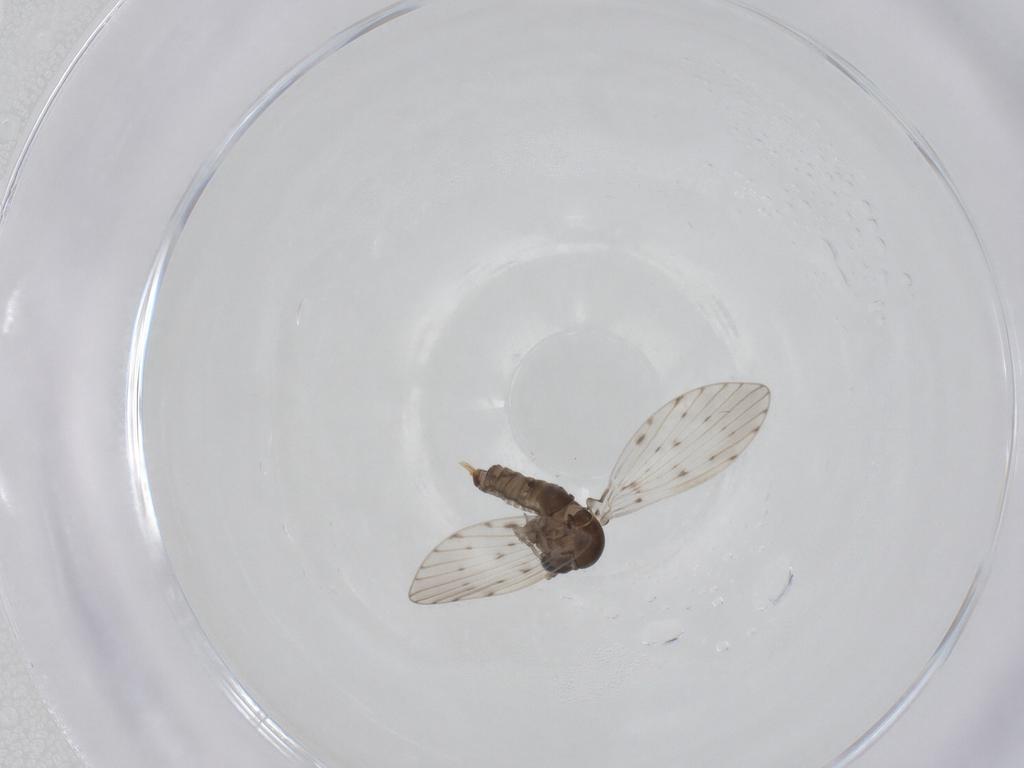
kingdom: Animalia
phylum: Arthropoda
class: Insecta
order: Diptera
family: Psychodidae
